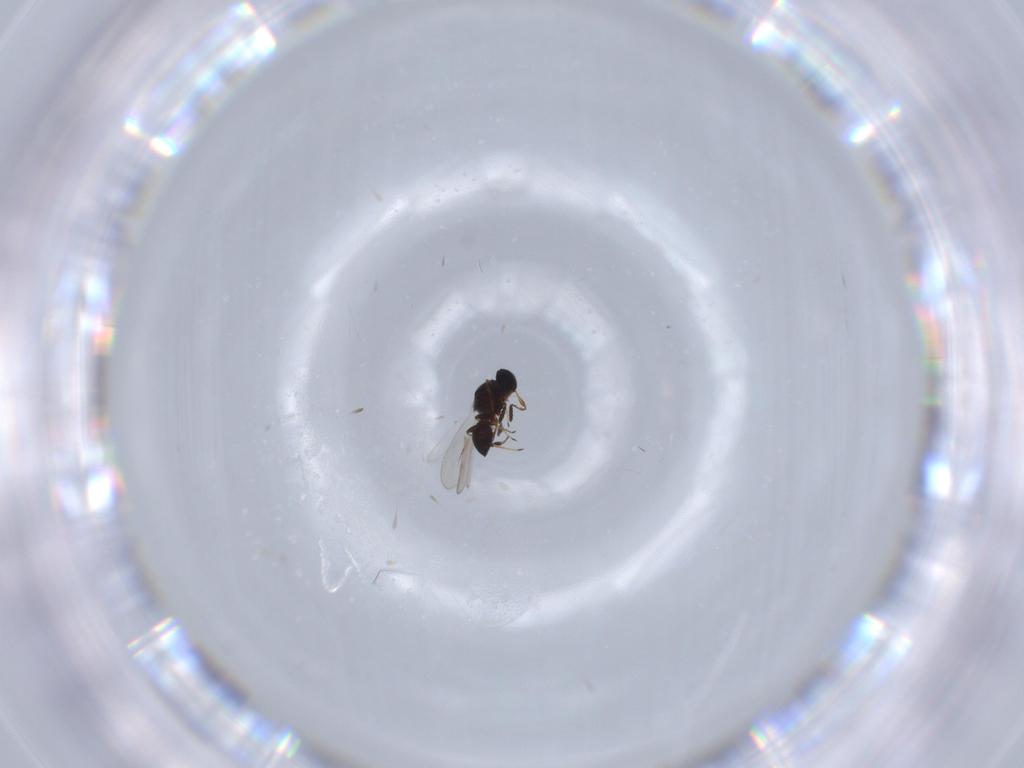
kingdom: Animalia
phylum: Arthropoda
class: Insecta
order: Hymenoptera
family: Platygastridae
